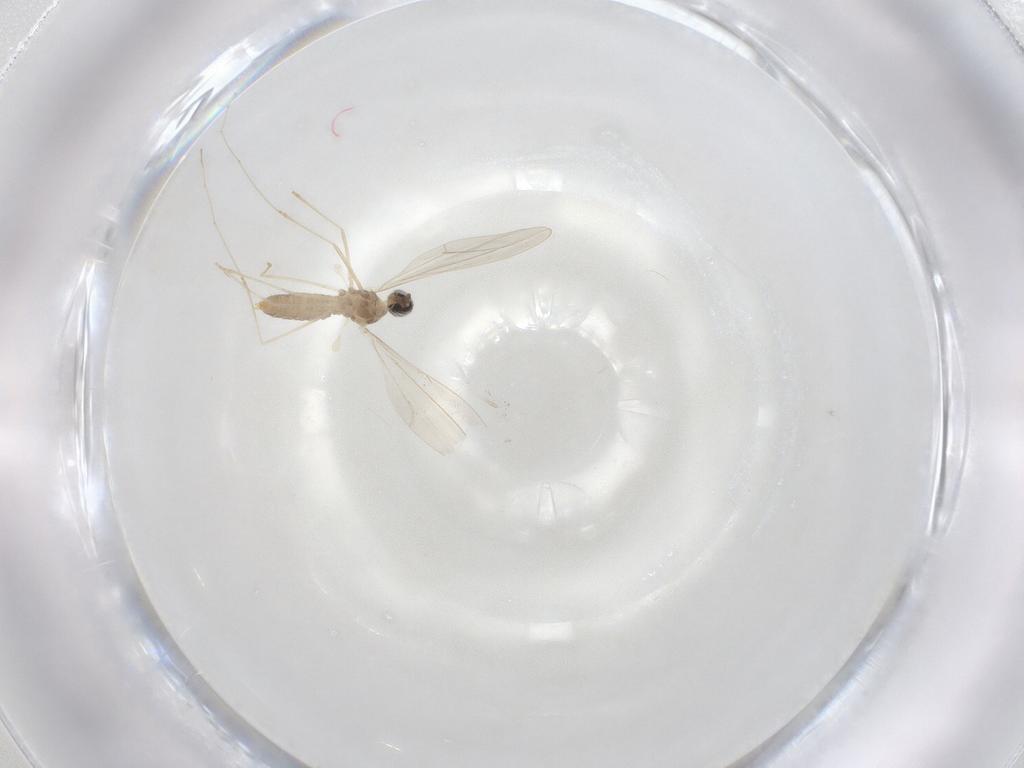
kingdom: Animalia
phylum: Arthropoda
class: Insecta
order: Diptera
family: Cecidomyiidae
